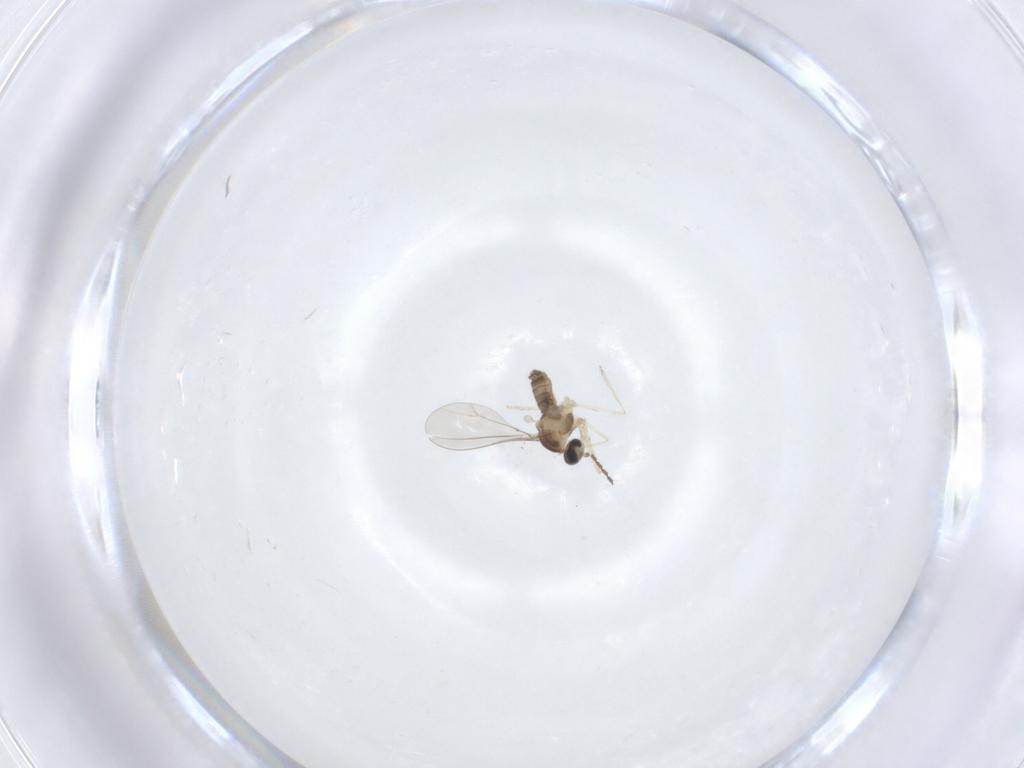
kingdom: Animalia
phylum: Arthropoda
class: Insecta
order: Diptera
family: Cecidomyiidae
